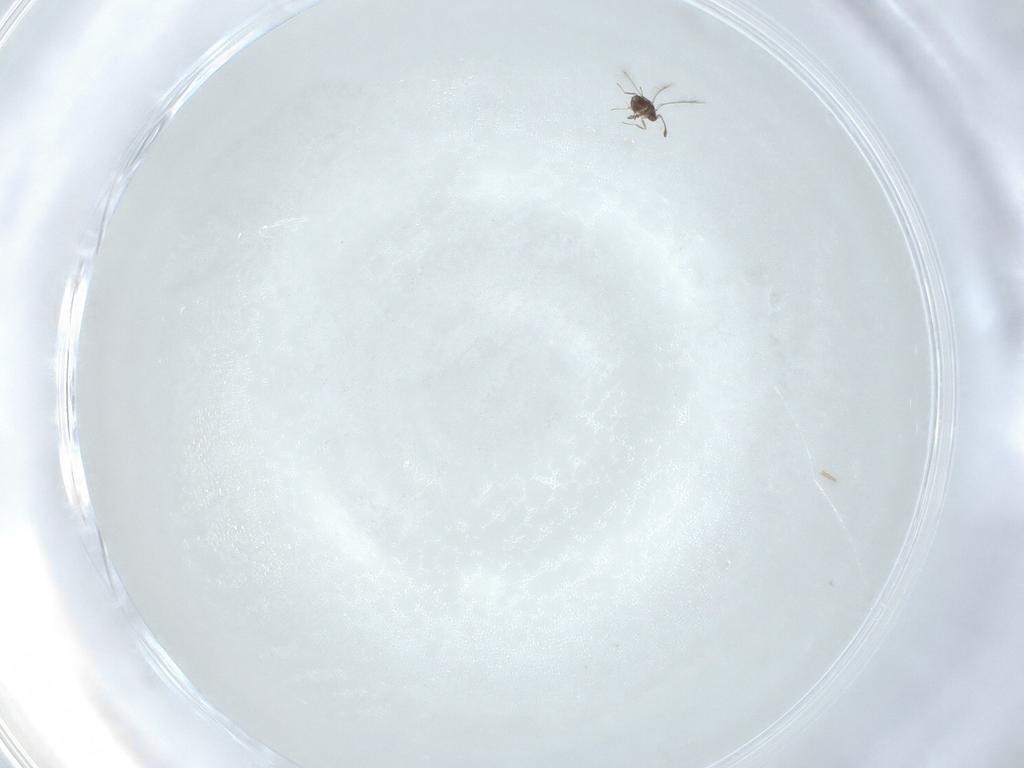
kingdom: Animalia
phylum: Arthropoda
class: Insecta
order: Hymenoptera
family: Mymaridae
